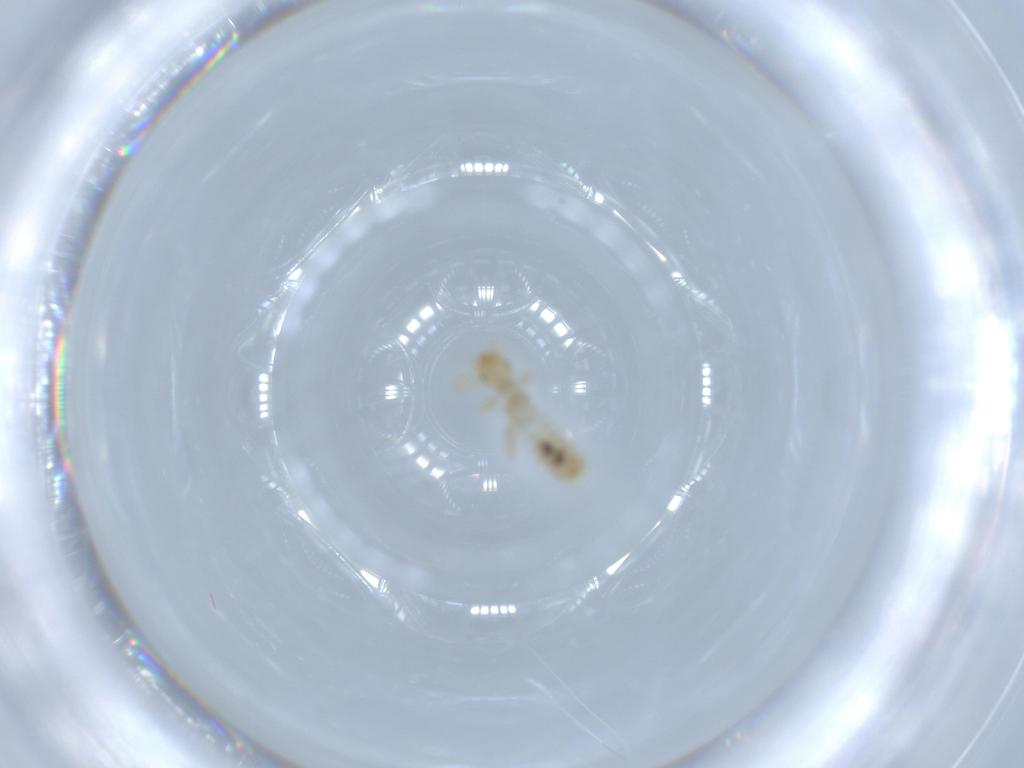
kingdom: Animalia
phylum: Arthropoda
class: Insecta
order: Psocodea
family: Liposcelididae
